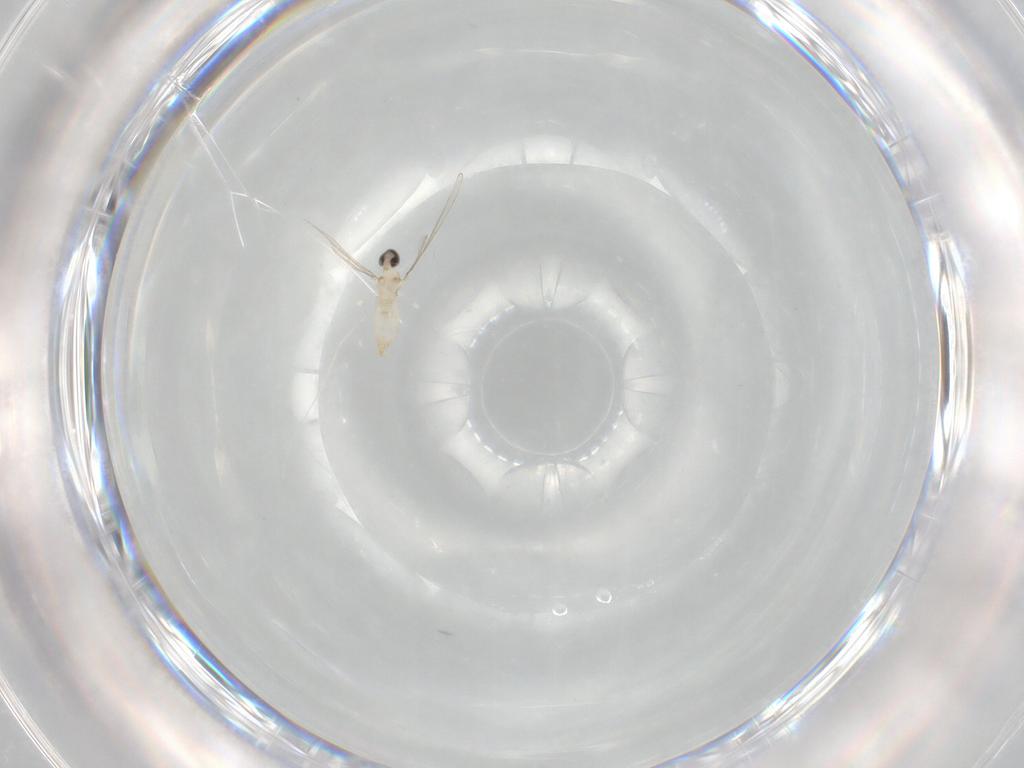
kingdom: Animalia
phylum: Arthropoda
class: Insecta
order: Diptera
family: Cecidomyiidae
